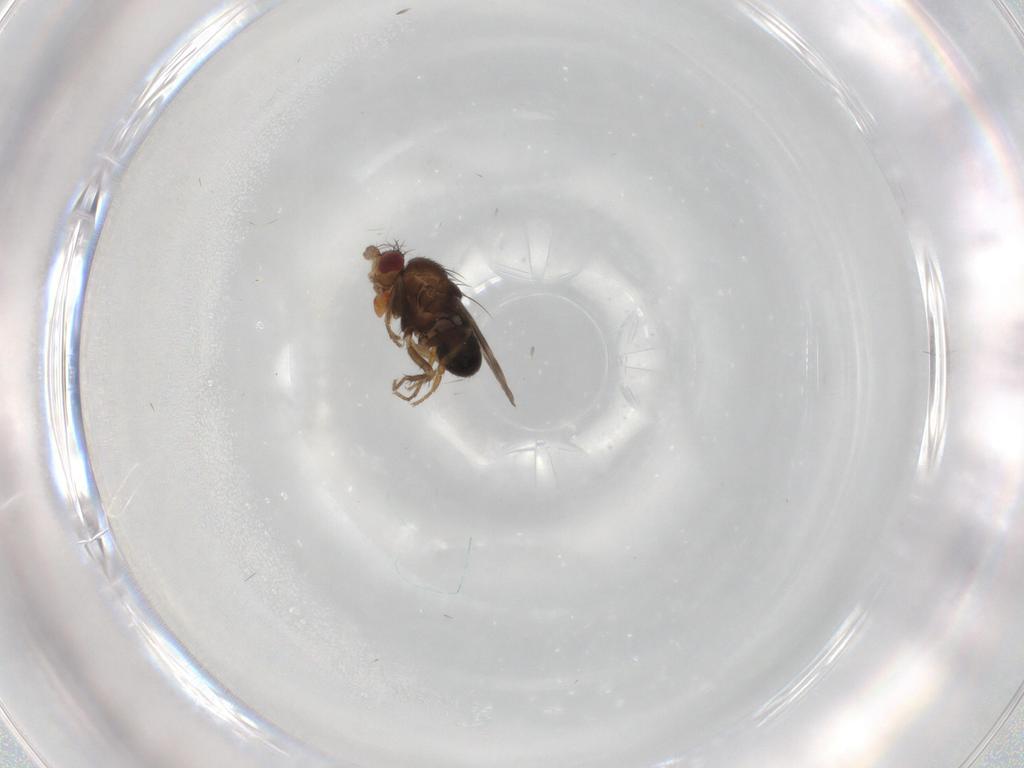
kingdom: Animalia
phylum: Arthropoda
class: Insecta
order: Diptera
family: Sphaeroceridae
